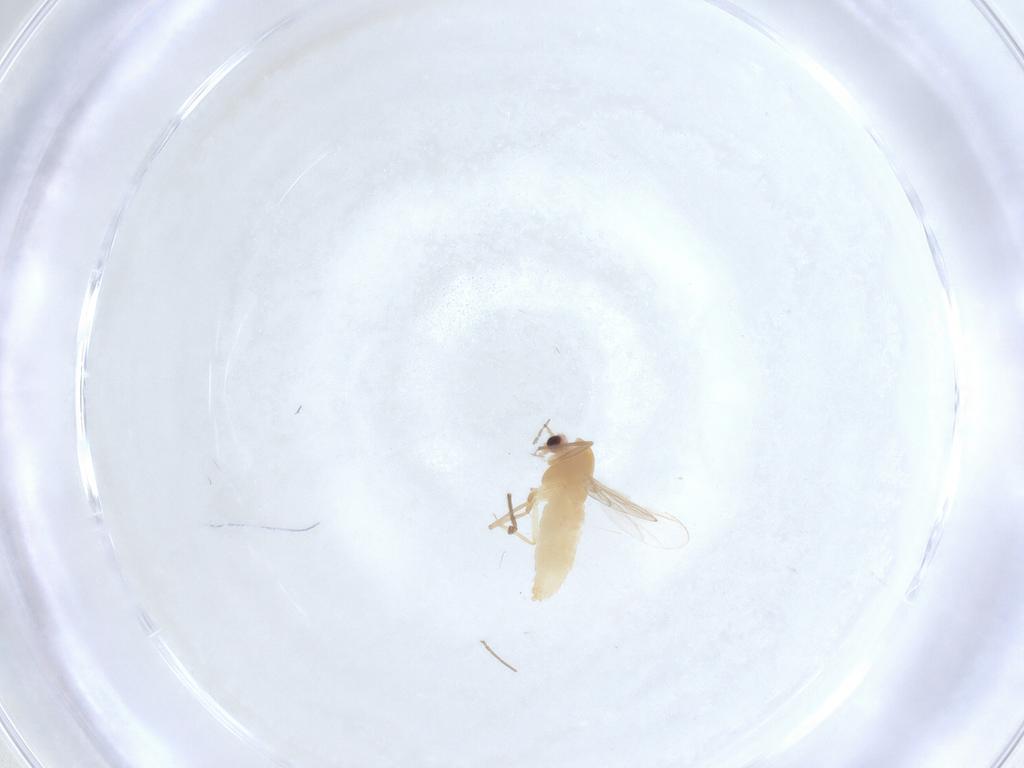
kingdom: Animalia
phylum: Arthropoda
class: Insecta
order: Diptera
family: Chironomidae
